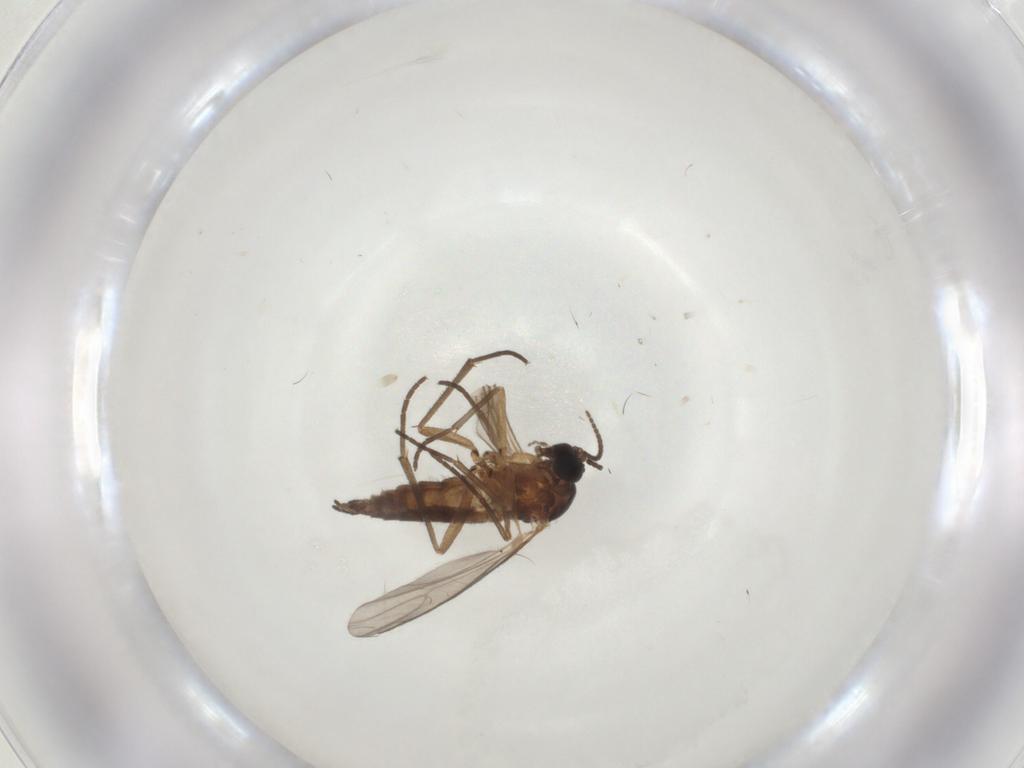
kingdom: Animalia
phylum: Arthropoda
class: Insecta
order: Diptera
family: Sciaridae
